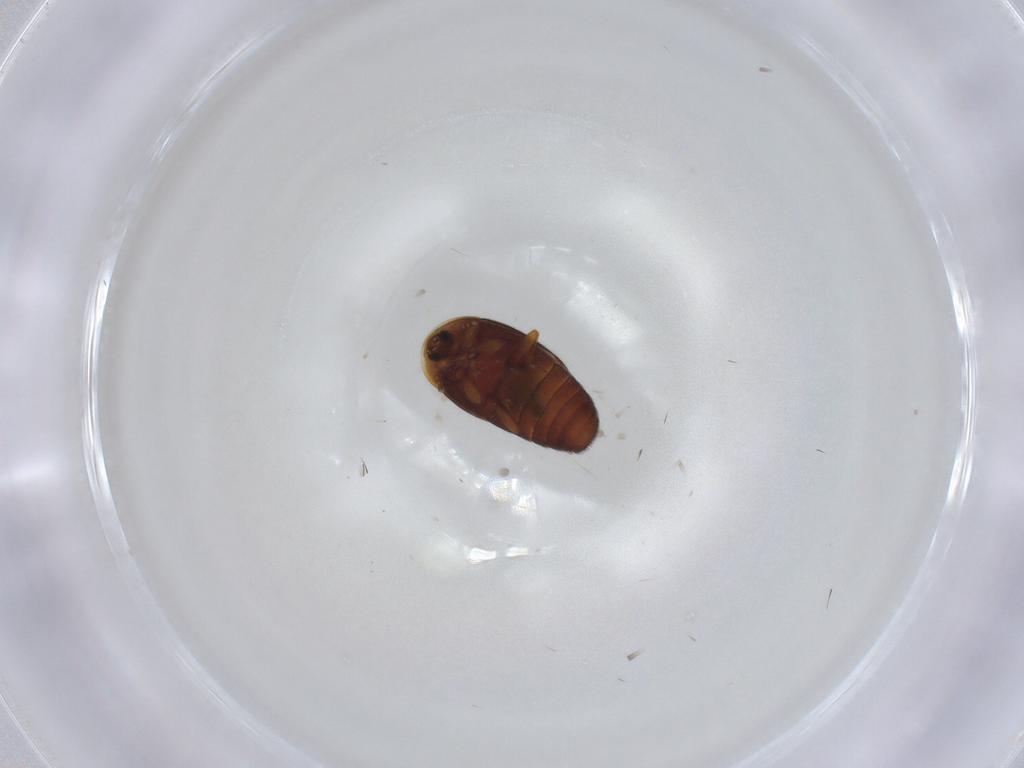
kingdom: Animalia
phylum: Arthropoda
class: Insecta
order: Coleoptera
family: Corylophidae
